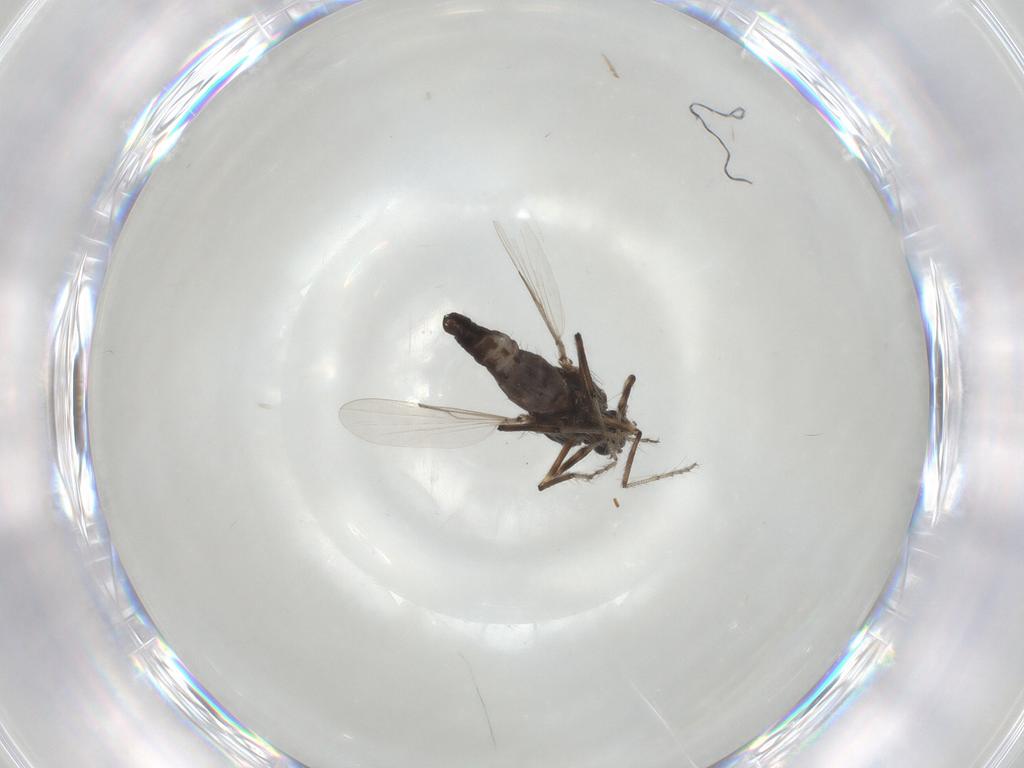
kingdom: Animalia
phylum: Arthropoda
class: Insecta
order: Diptera
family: Ceratopogonidae
